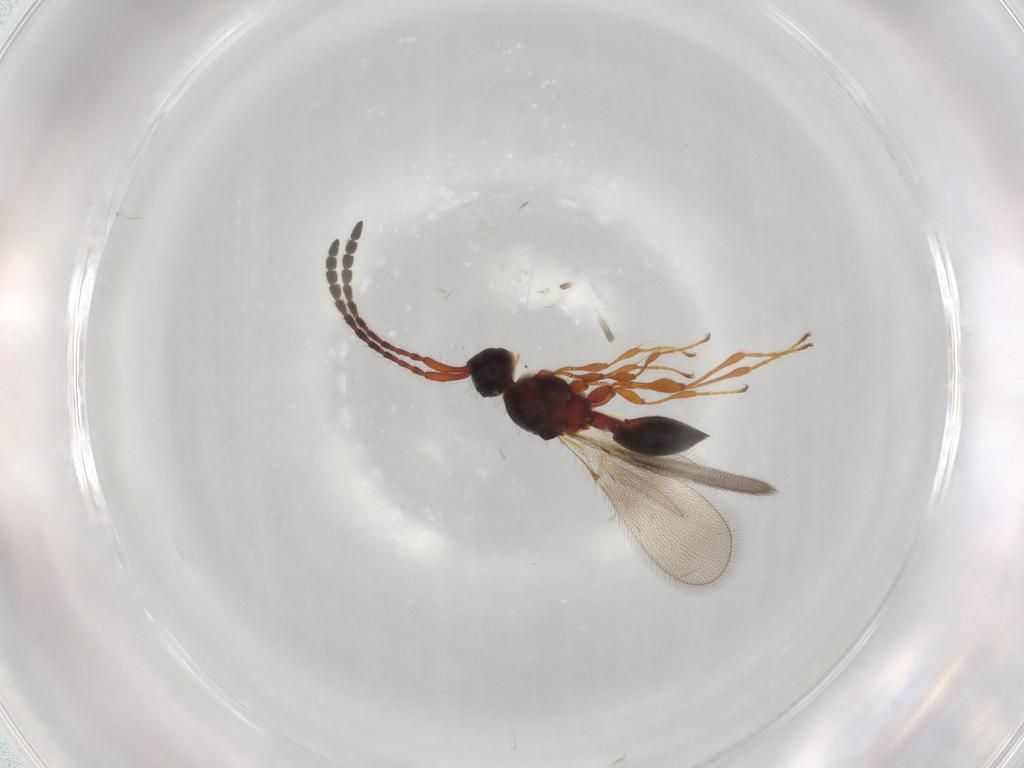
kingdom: Animalia
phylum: Arthropoda
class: Insecta
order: Hymenoptera
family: Diapriidae
